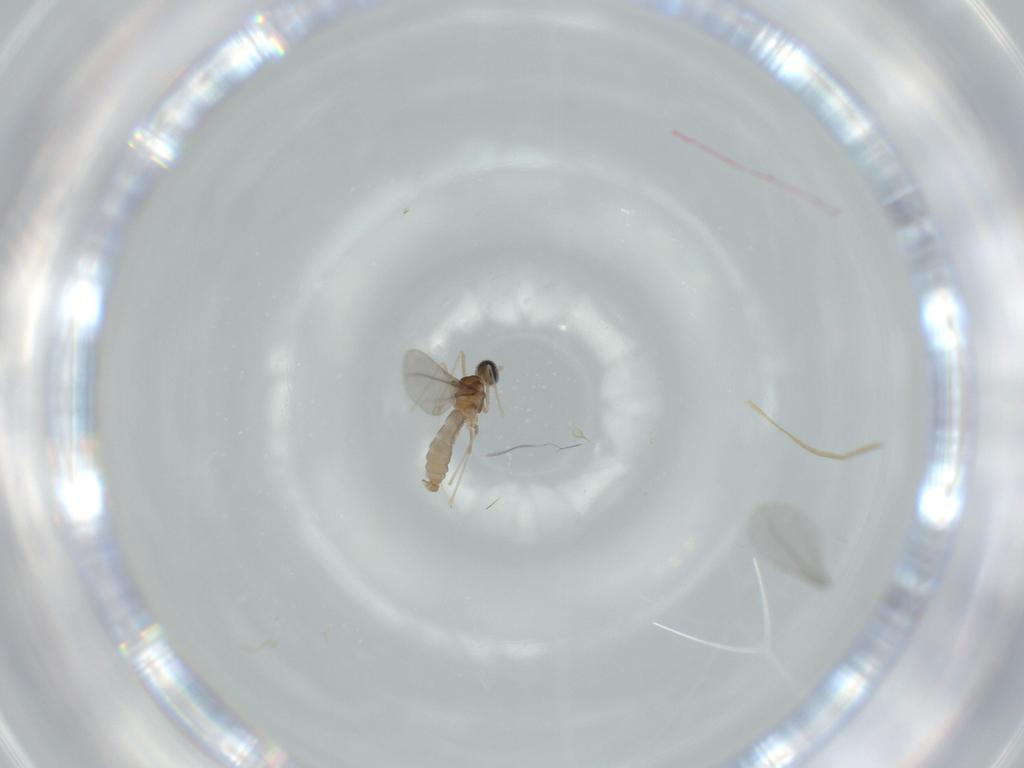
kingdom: Animalia
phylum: Arthropoda
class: Insecta
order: Diptera
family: Cecidomyiidae
